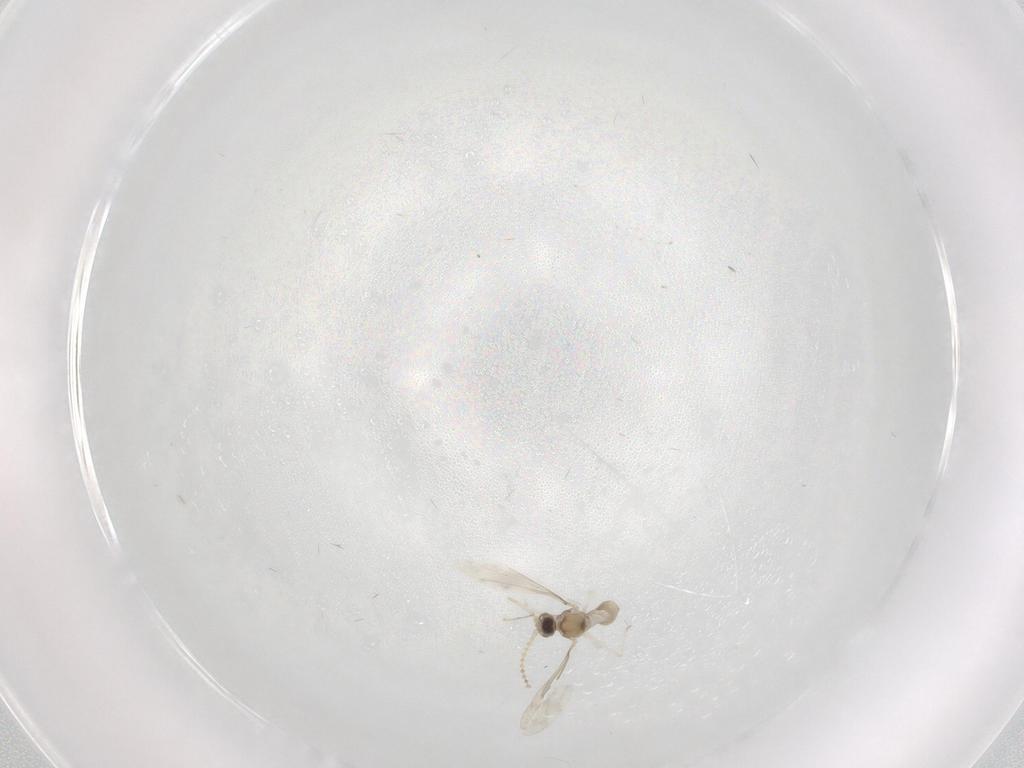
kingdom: Animalia
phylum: Arthropoda
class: Insecta
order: Diptera
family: Cecidomyiidae
